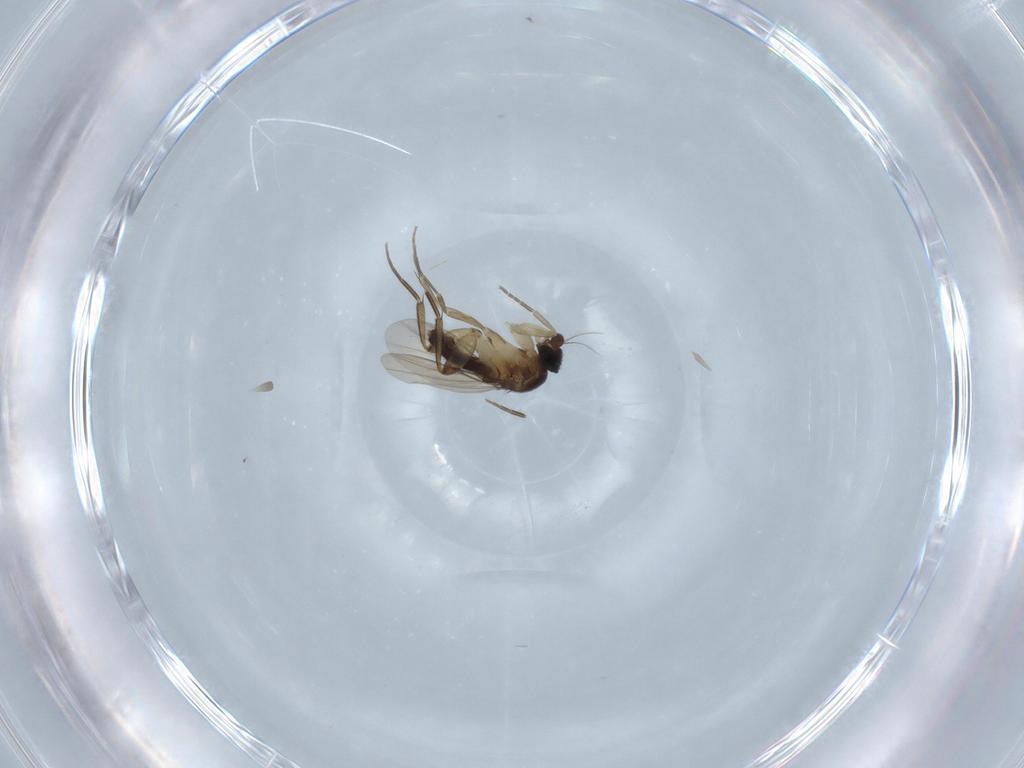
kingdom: Animalia
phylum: Arthropoda
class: Insecta
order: Diptera
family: Phoridae
